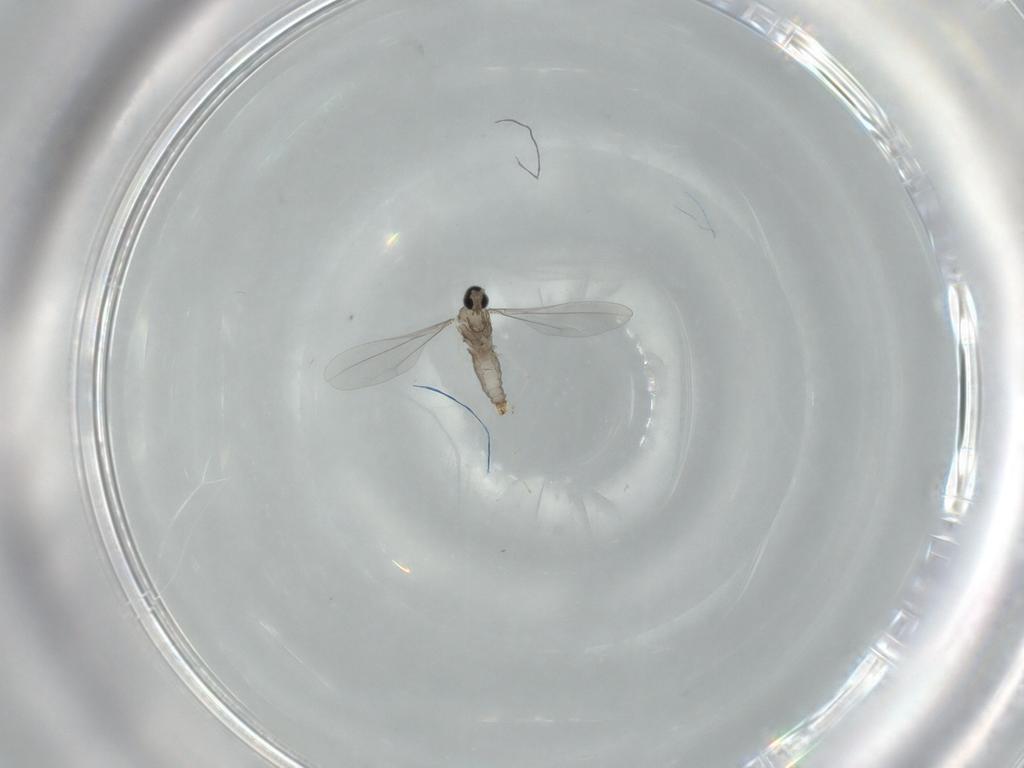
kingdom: Animalia
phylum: Arthropoda
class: Insecta
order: Diptera
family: Cecidomyiidae
